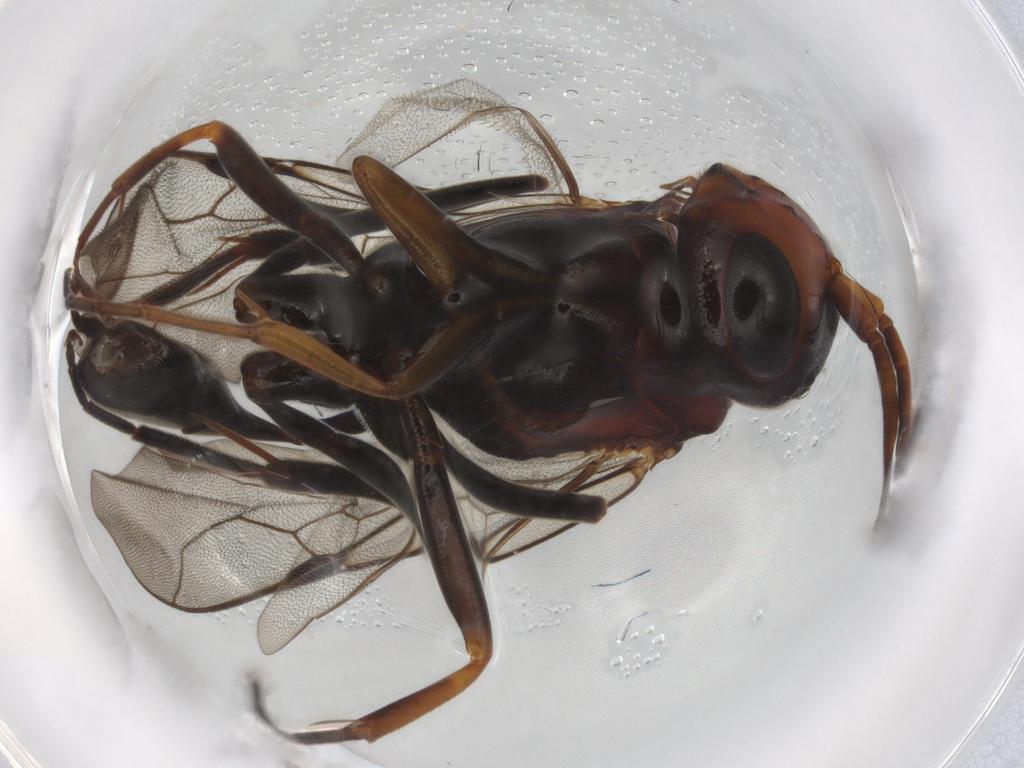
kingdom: Animalia
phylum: Arthropoda
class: Insecta
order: Hymenoptera
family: Evaniidae
